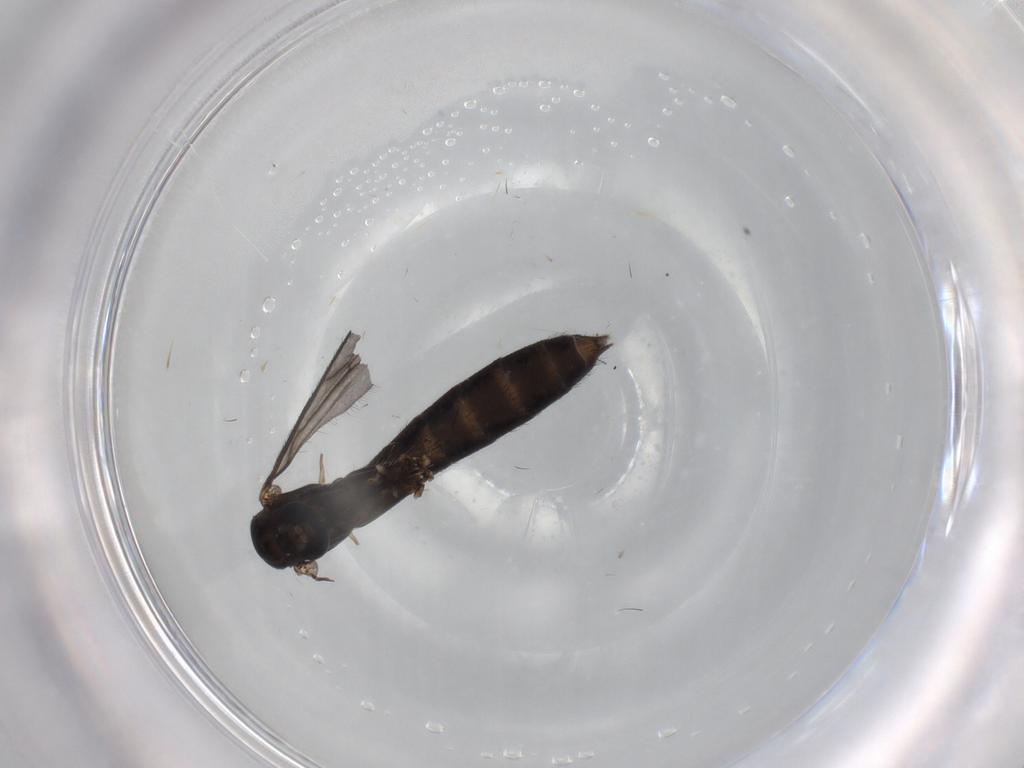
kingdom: Animalia
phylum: Arthropoda
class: Insecta
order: Diptera
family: Keroplatidae
